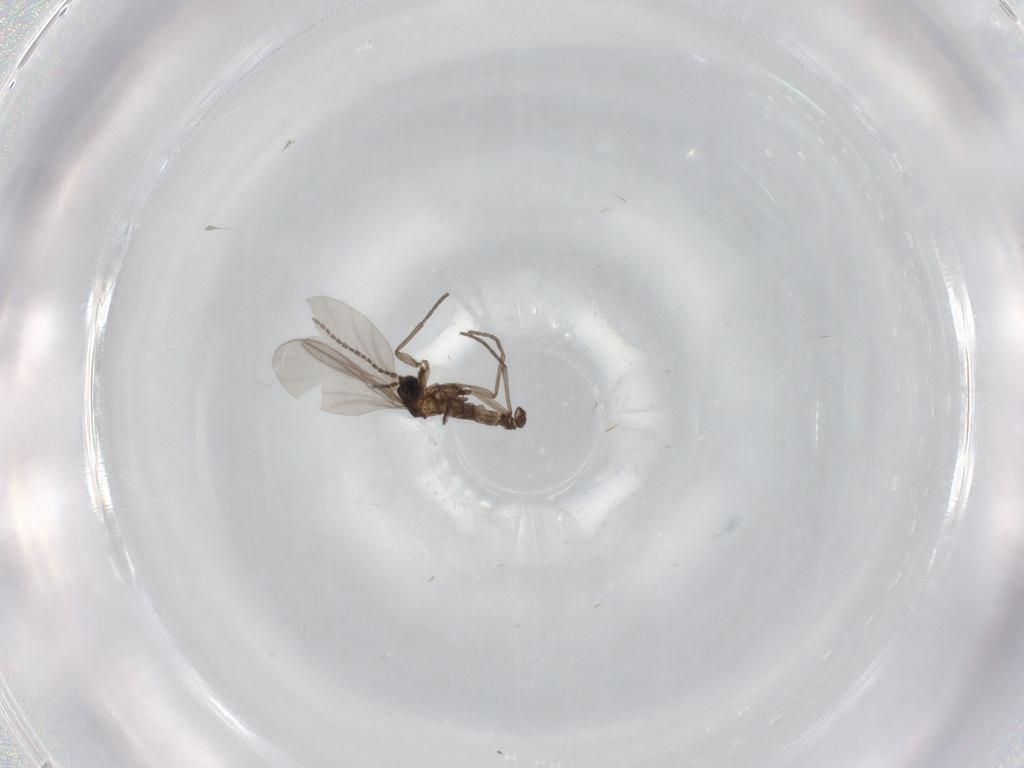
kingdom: Animalia
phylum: Arthropoda
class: Insecta
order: Diptera
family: Sciaridae
